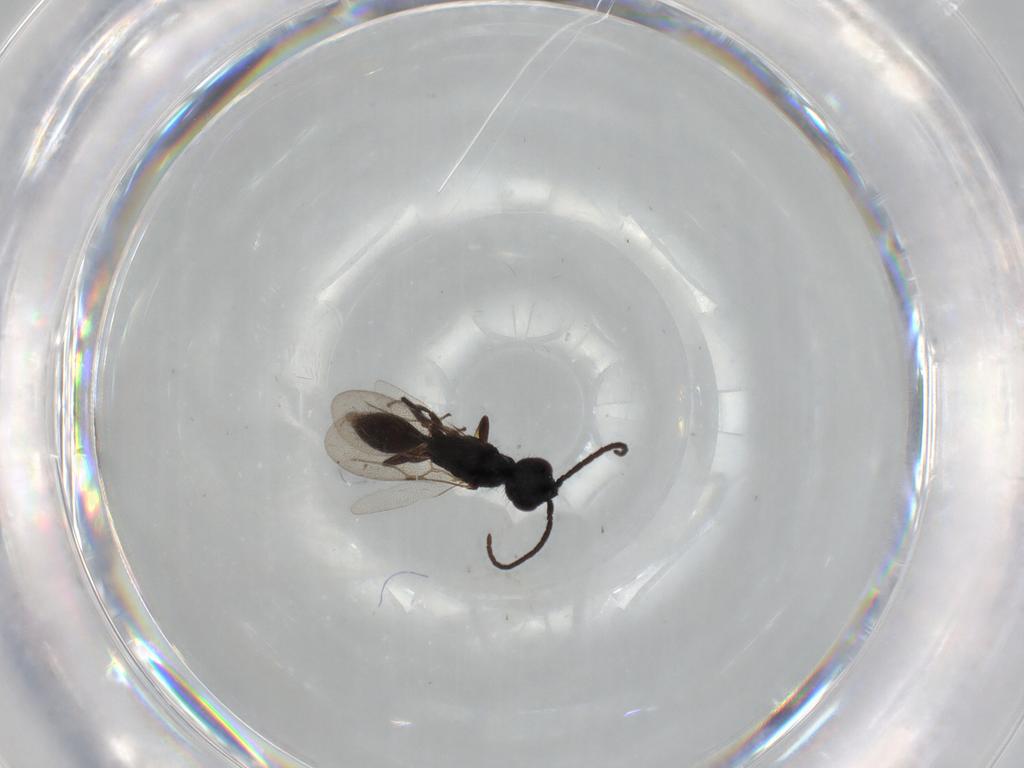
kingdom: Animalia
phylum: Arthropoda
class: Insecta
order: Hymenoptera
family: Bethylidae
